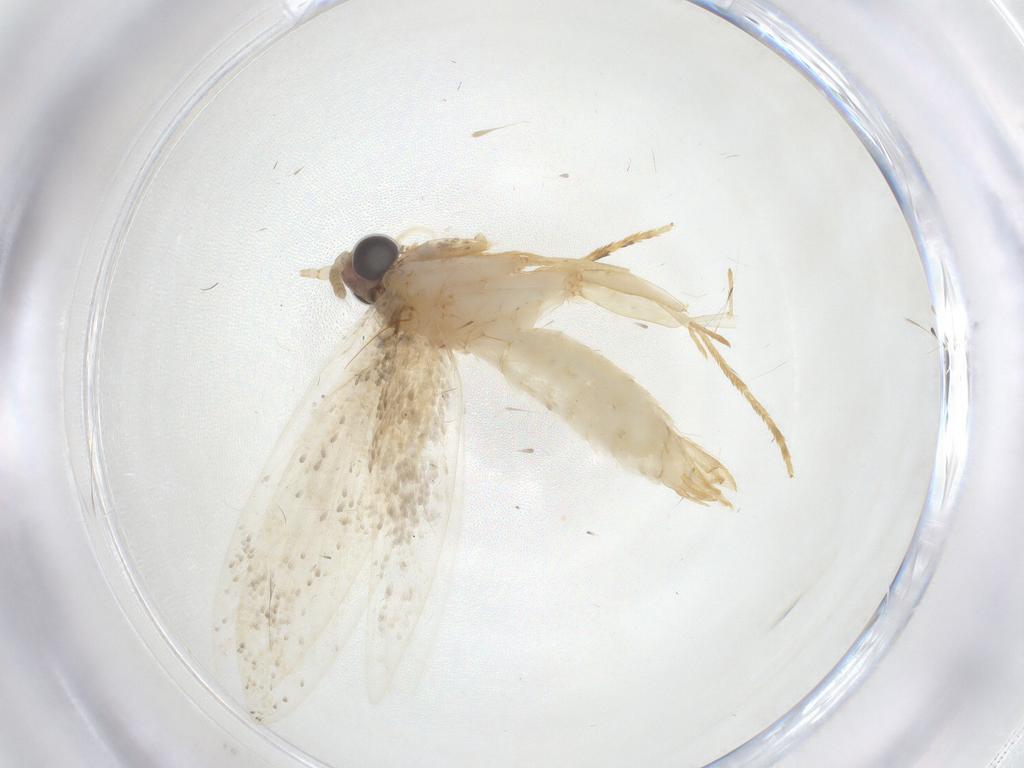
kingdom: Animalia
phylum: Arthropoda
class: Insecta
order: Lepidoptera
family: Tineidae
